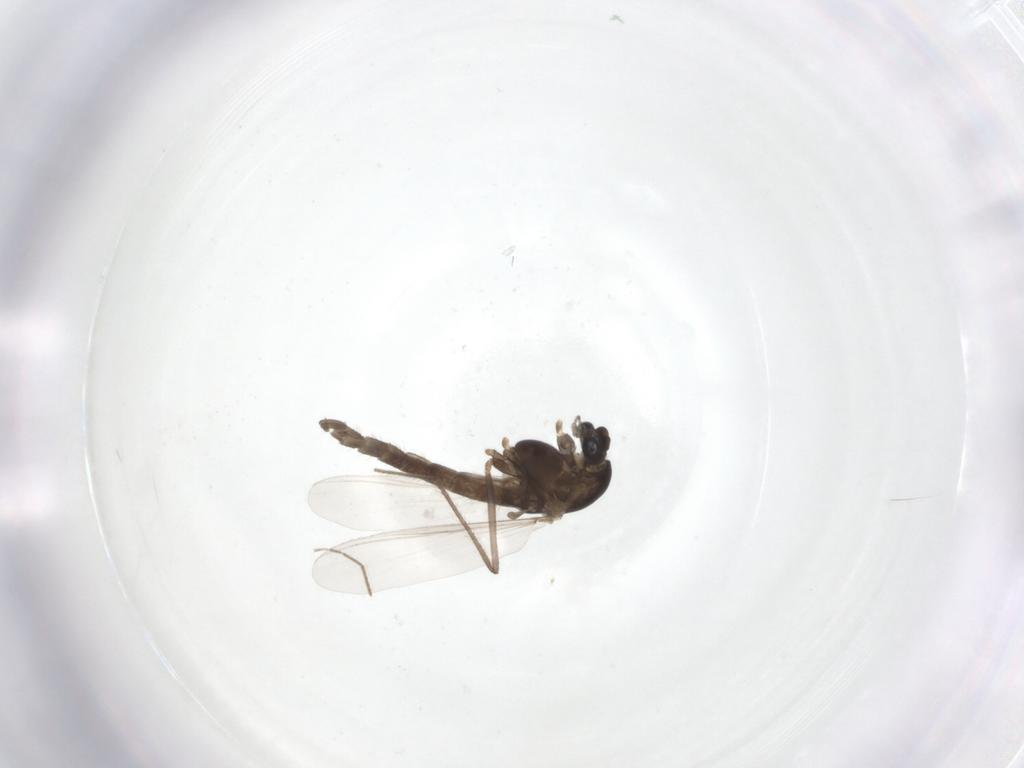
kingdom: Animalia
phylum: Arthropoda
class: Insecta
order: Diptera
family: Chironomidae
